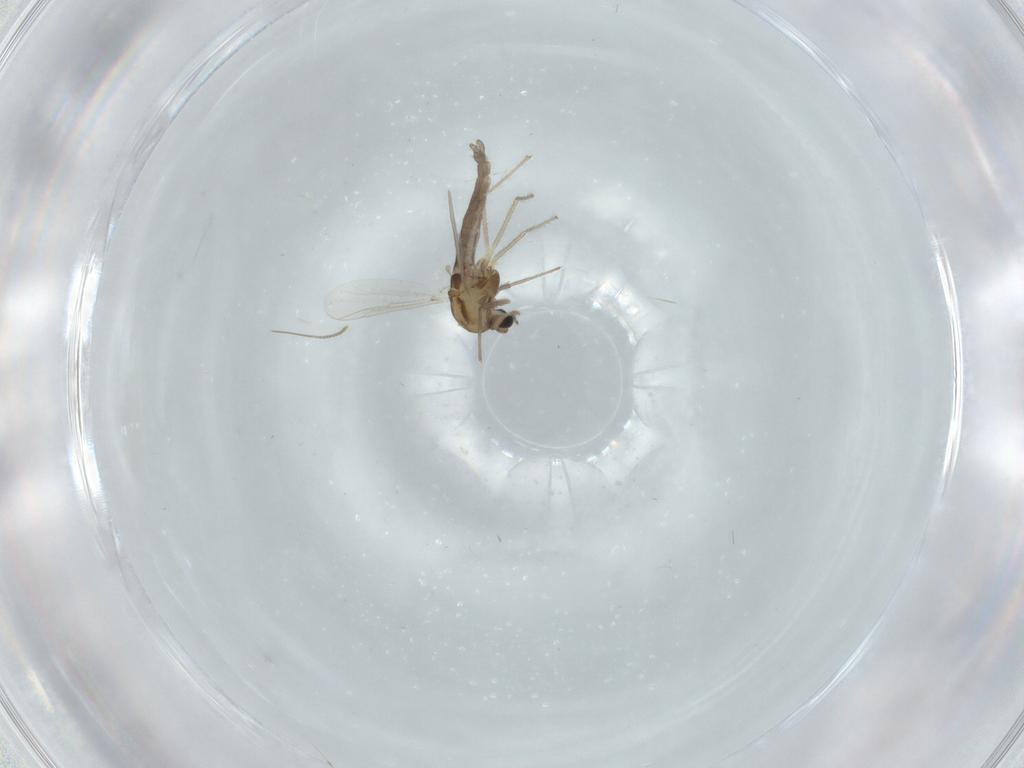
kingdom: Animalia
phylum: Arthropoda
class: Insecta
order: Diptera
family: Chironomidae
